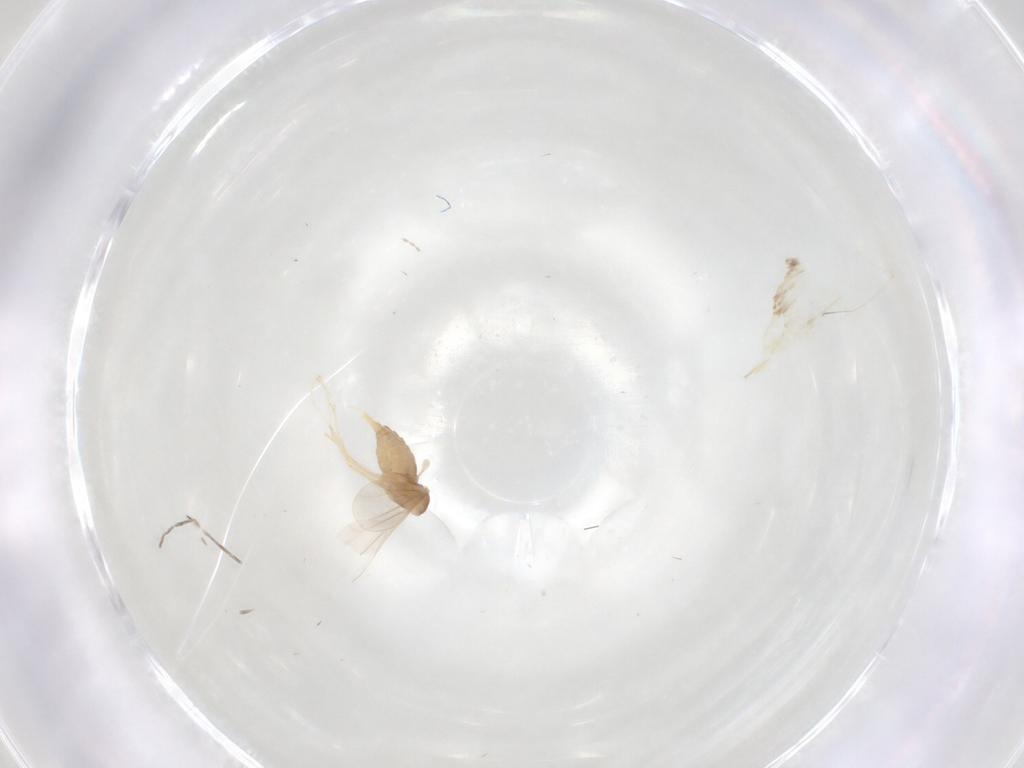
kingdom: Animalia
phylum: Arthropoda
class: Insecta
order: Diptera
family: Cecidomyiidae
